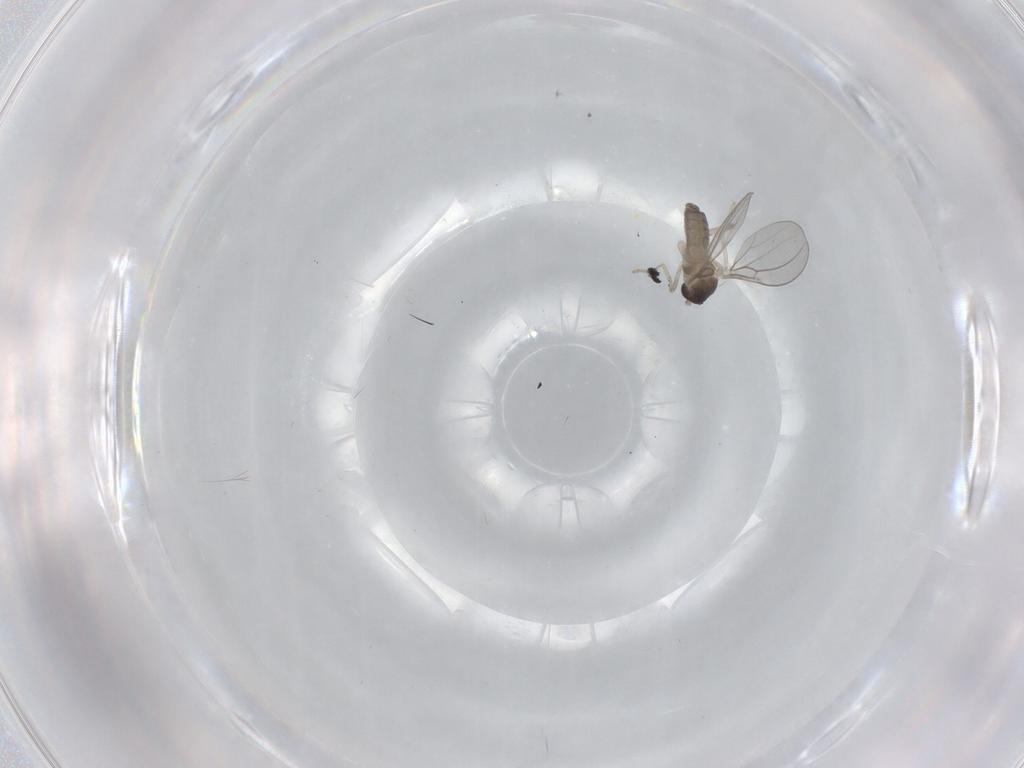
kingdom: Animalia
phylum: Arthropoda
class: Insecta
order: Diptera
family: Cecidomyiidae
